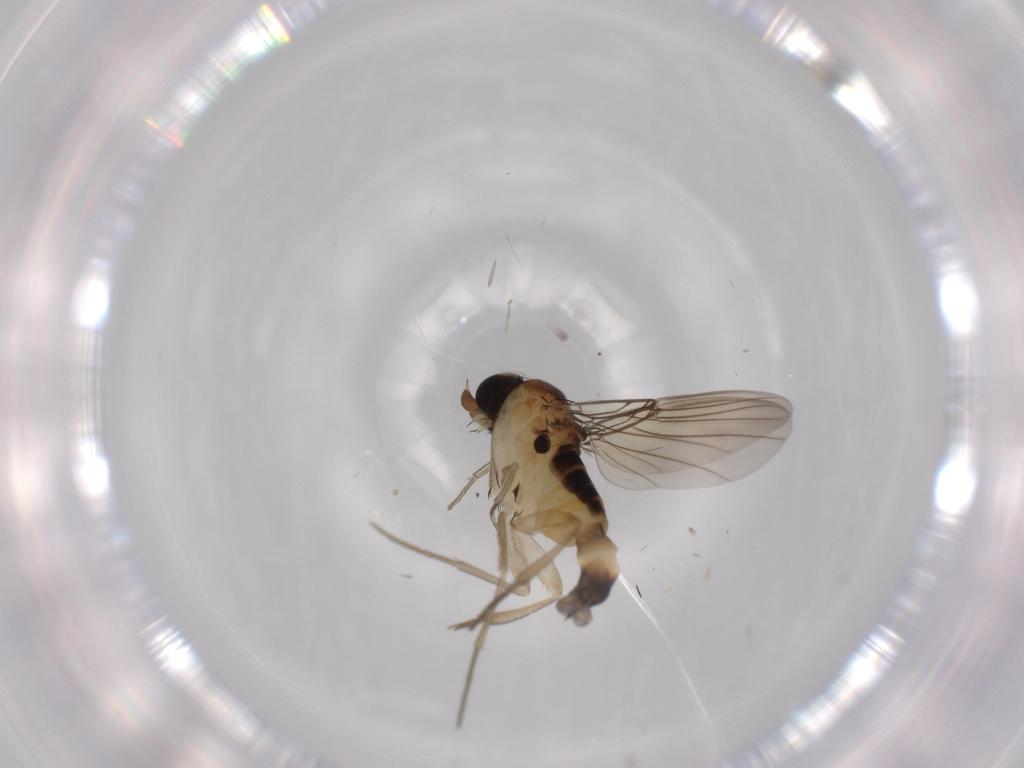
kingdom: Animalia
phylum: Arthropoda
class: Insecta
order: Diptera
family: Phoridae
